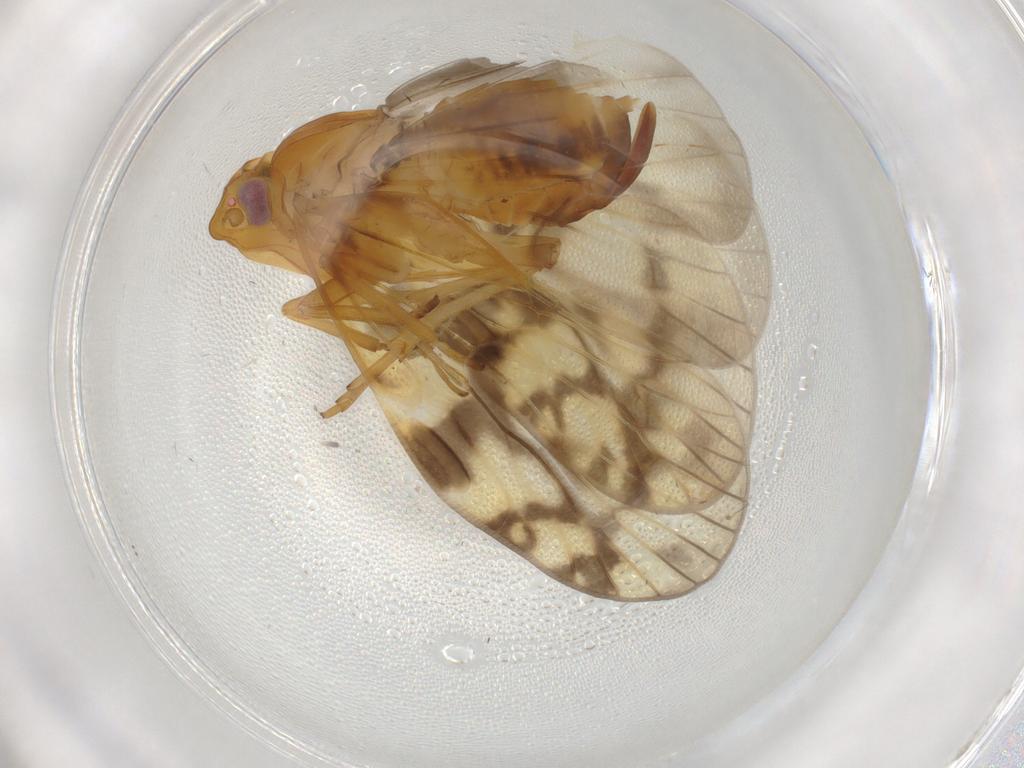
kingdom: Animalia
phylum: Arthropoda
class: Insecta
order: Hemiptera
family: Cixiidae
